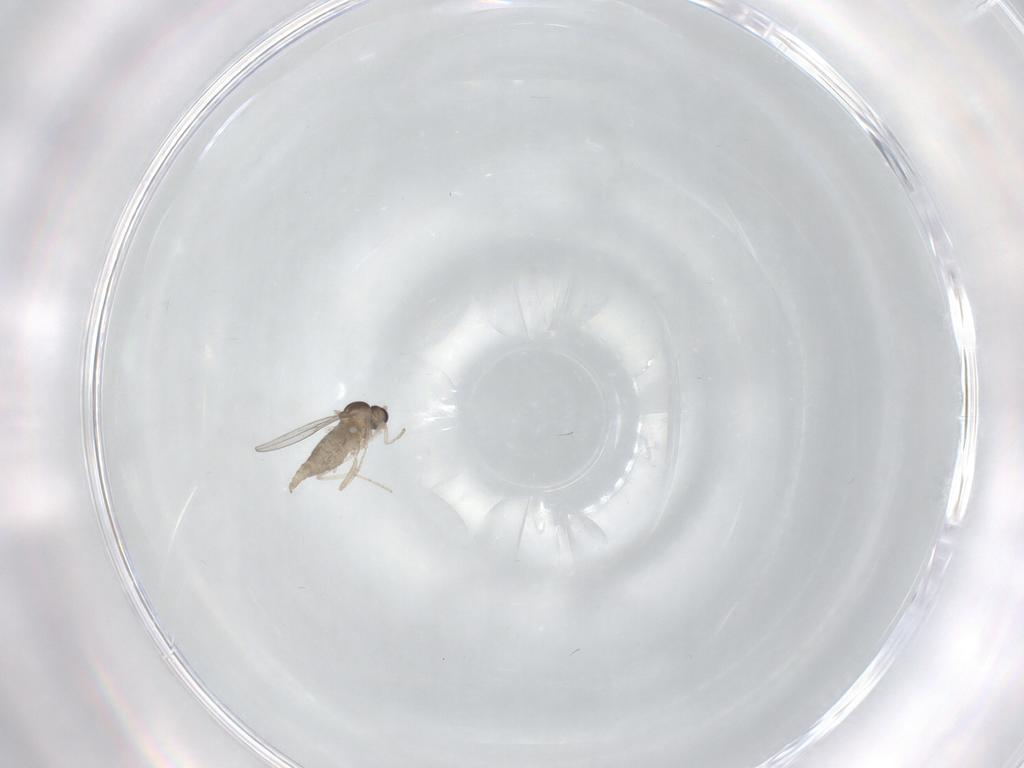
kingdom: Animalia
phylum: Arthropoda
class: Insecta
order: Diptera
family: Cecidomyiidae
